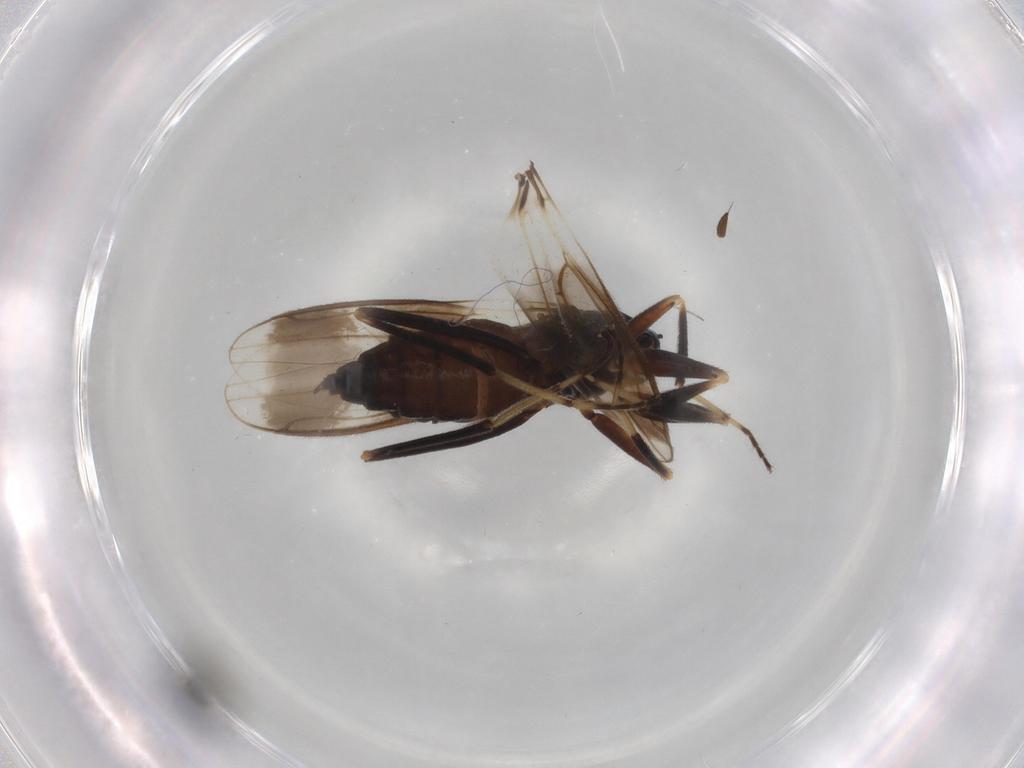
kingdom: Animalia
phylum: Arthropoda
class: Insecta
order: Diptera
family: Hybotidae
